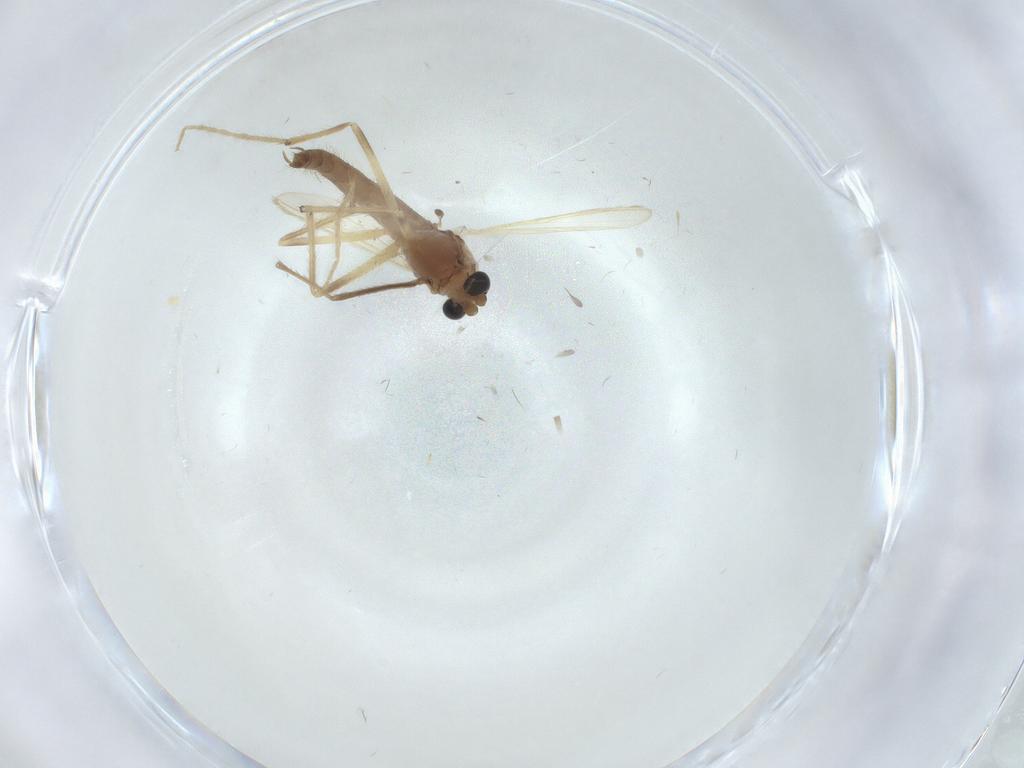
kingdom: Animalia
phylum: Arthropoda
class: Insecta
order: Diptera
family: Chironomidae
